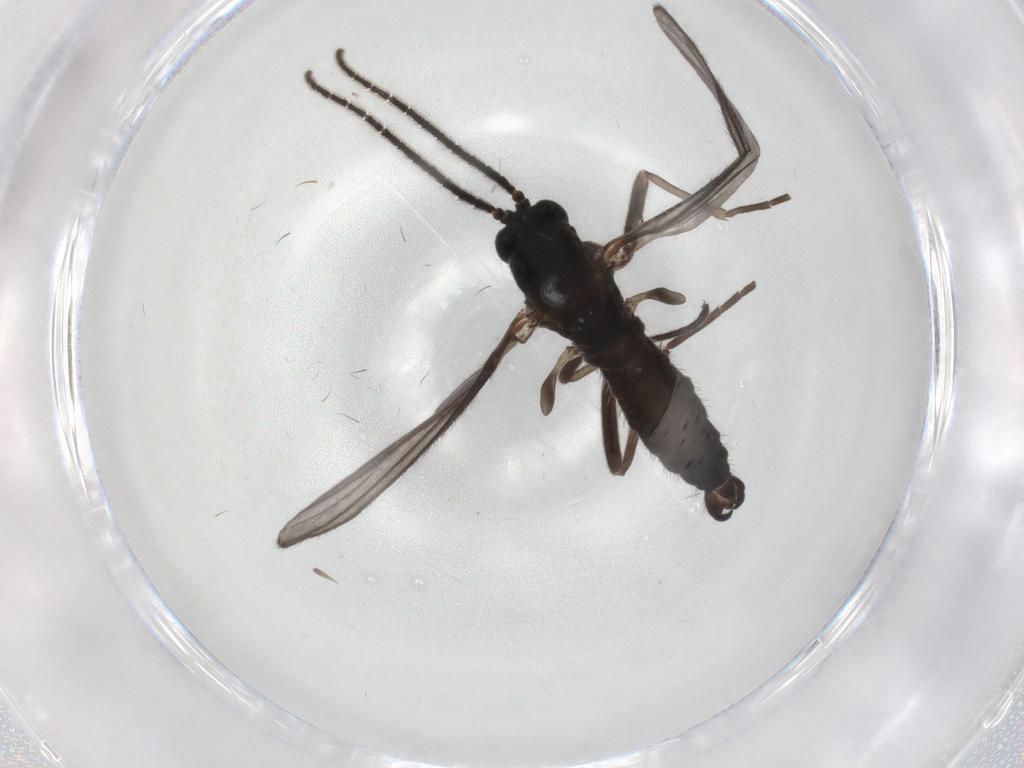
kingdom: Animalia
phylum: Arthropoda
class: Insecta
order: Diptera
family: Sciaridae
